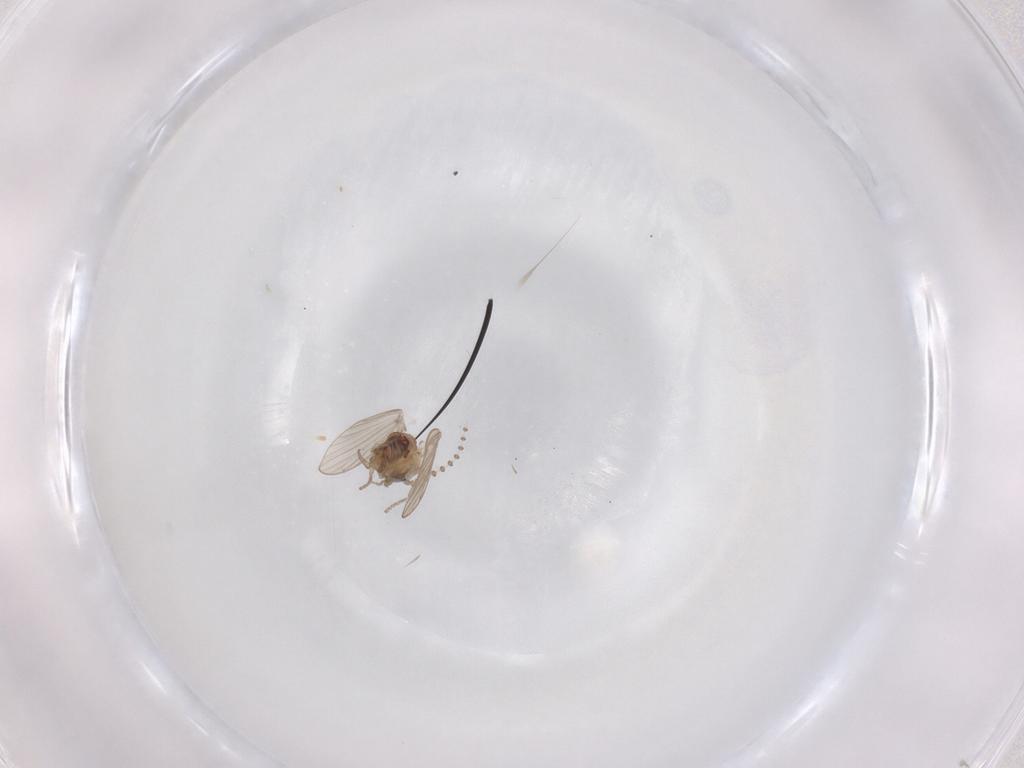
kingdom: Animalia
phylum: Arthropoda
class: Insecta
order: Diptera
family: Psychodidae
